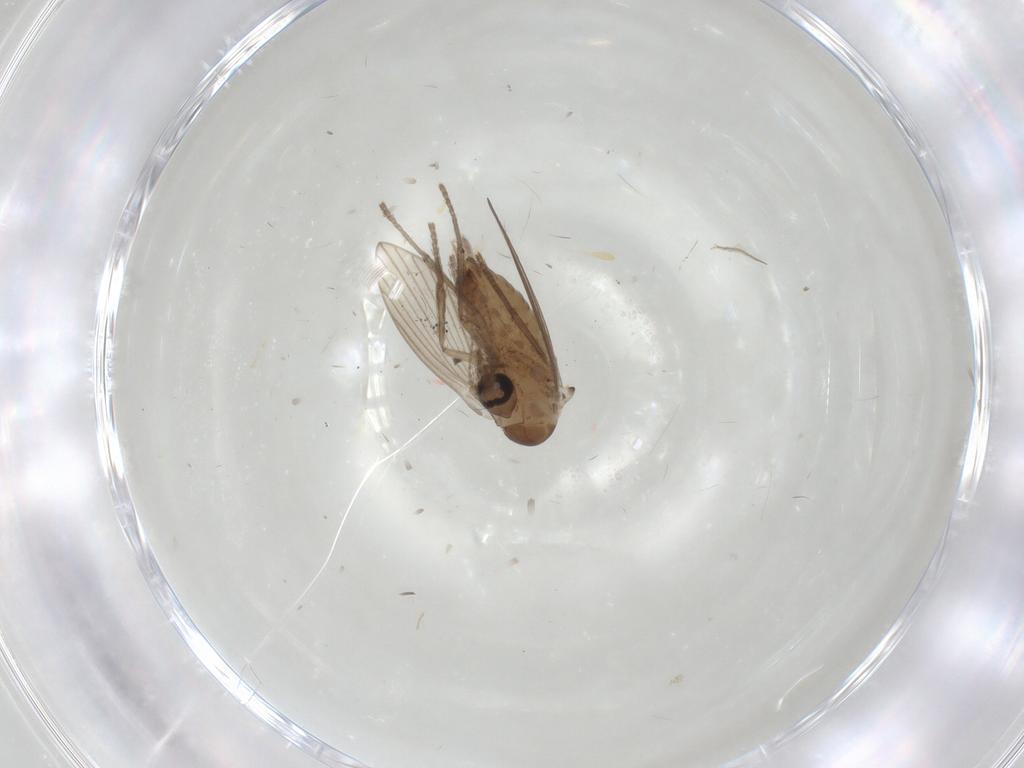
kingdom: Animalia
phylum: Arthropoda
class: Insecta
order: Diptera
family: Psychodidae
